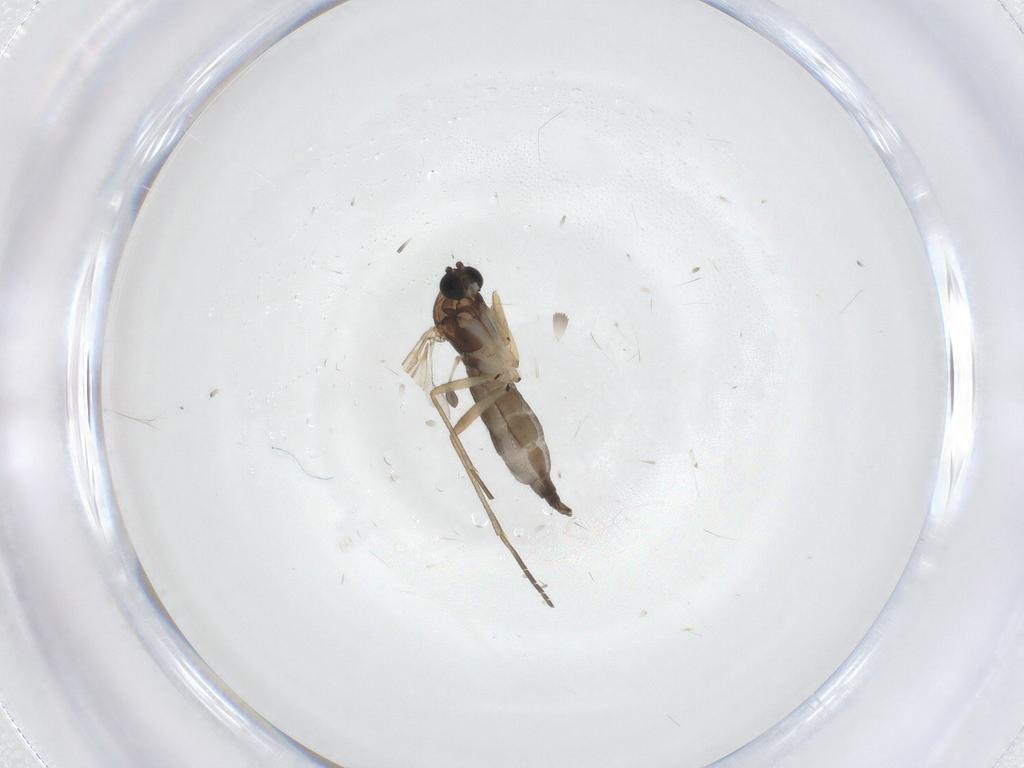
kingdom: Animalia
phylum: Arthropoda
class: Insecta
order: Diptera
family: Sciaridae
